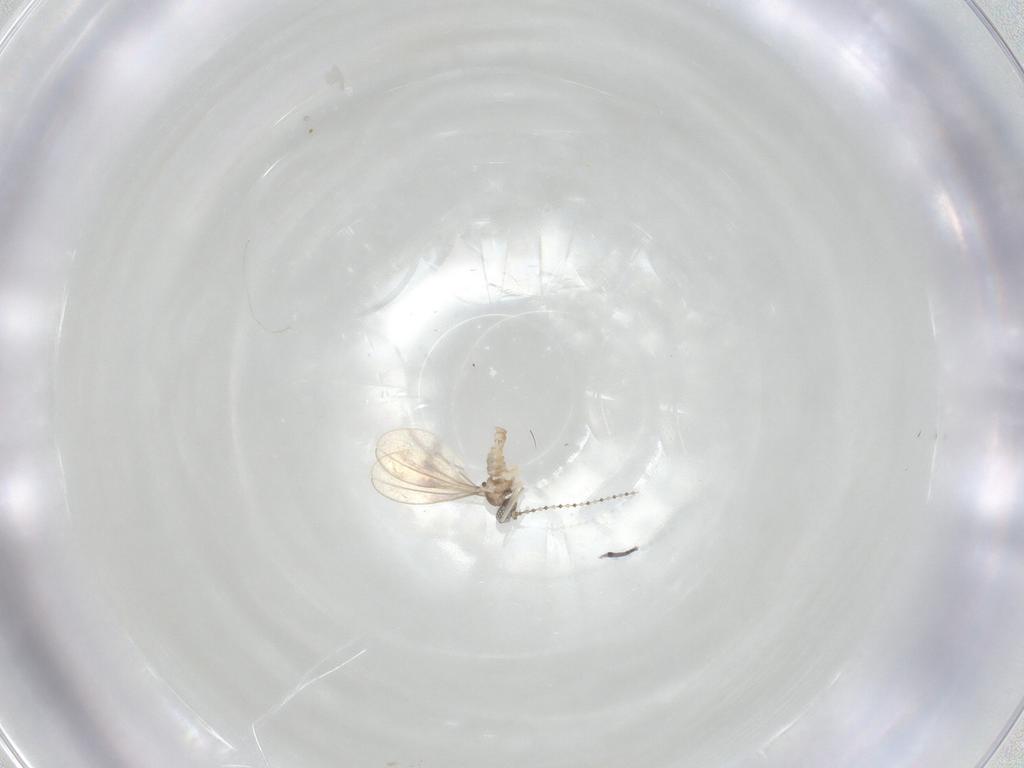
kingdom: Animalia
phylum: Arthropoda
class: Insecta
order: Diptera
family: Cecidomyiidae
